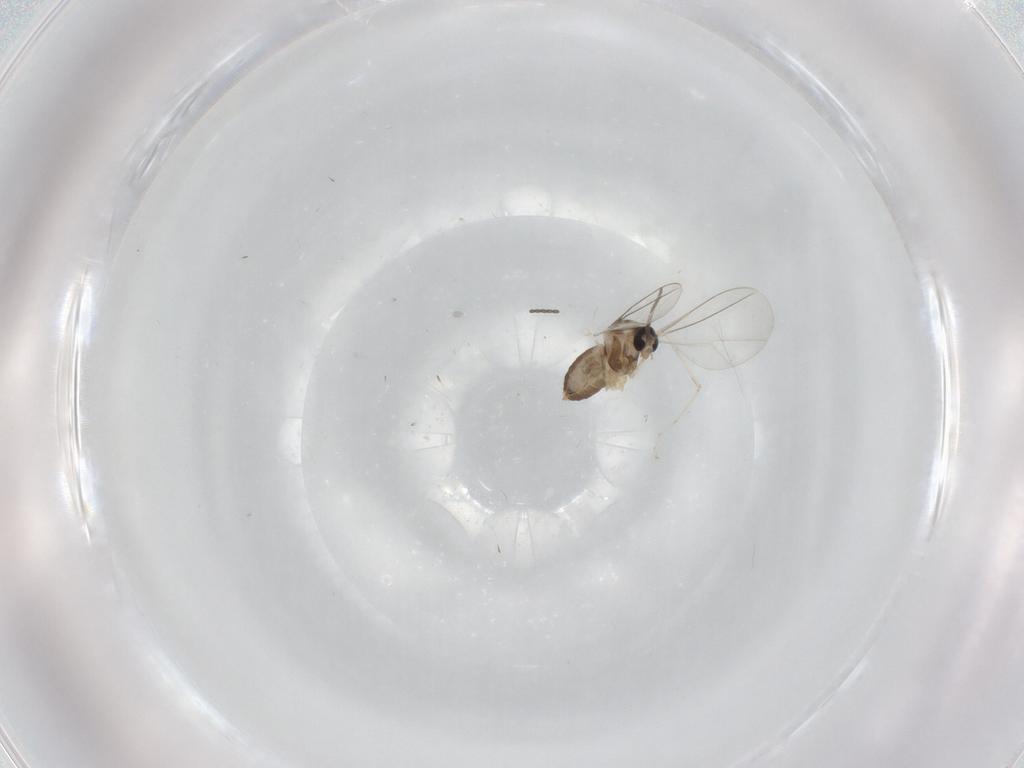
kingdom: Animalia
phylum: Arthropoda
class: Insecta
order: Diptera
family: Psychodidae
